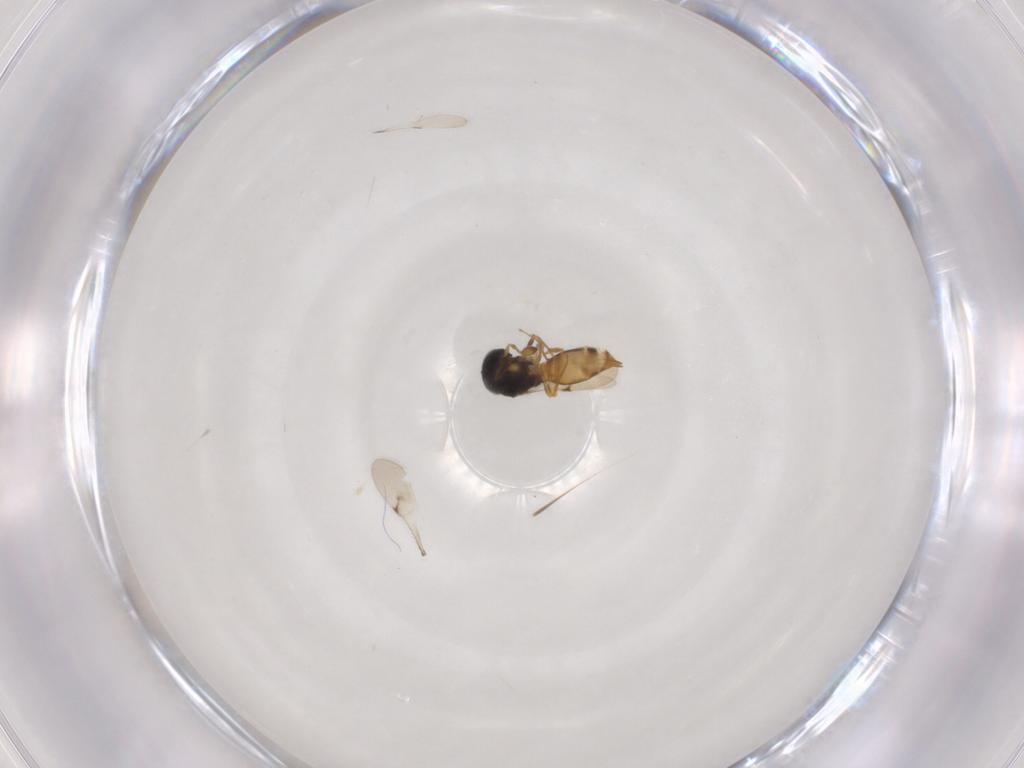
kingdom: Animalia
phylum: Arthropoda
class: Insecta
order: Hymenoptera
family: Scelionidae
